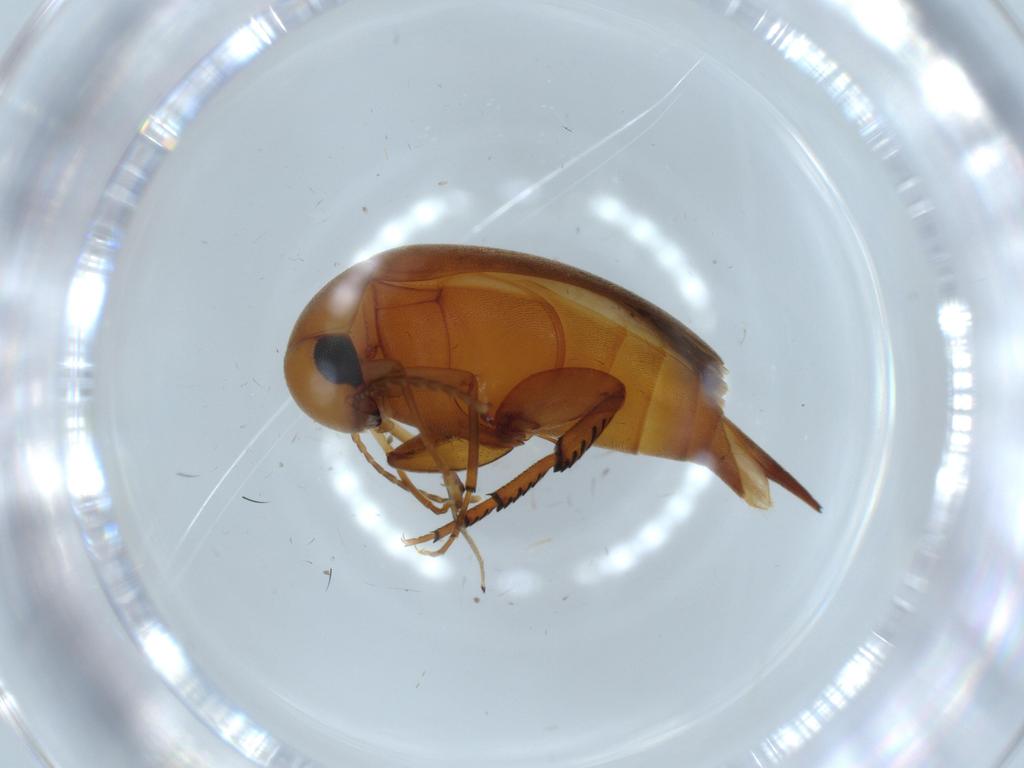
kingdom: Animalia
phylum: Arthropoda
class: Insecta
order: Coleoptera
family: Mordellidae
